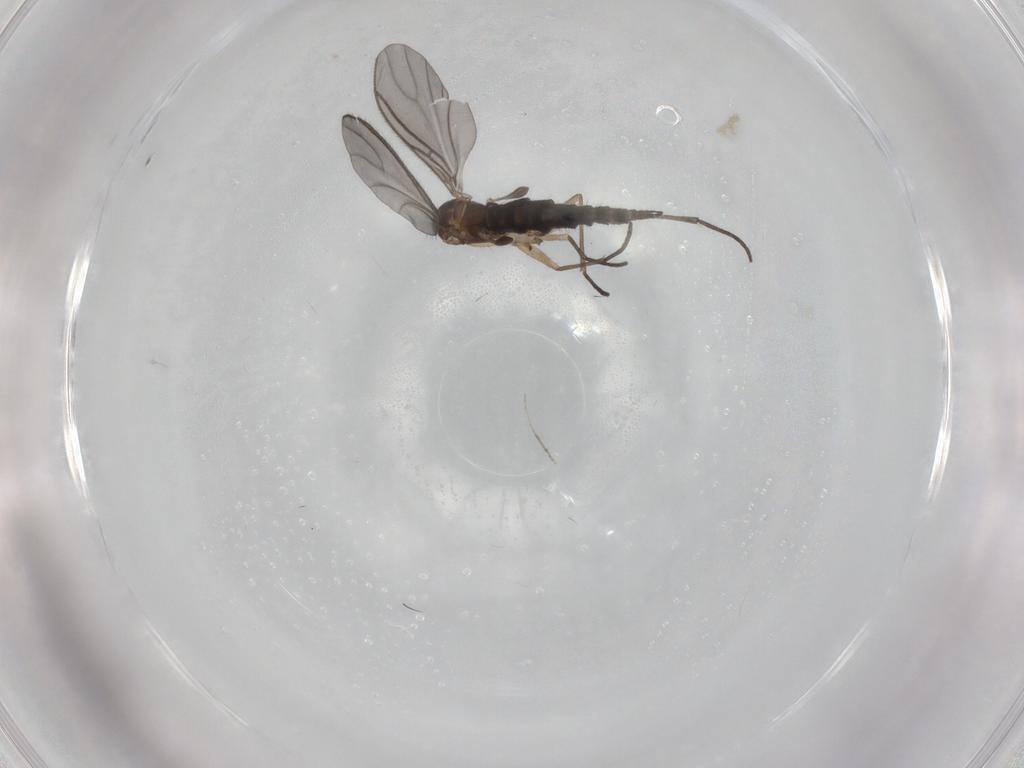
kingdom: Animalia
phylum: Arthropoda
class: Insecta
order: Diptera
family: Sciaridae
